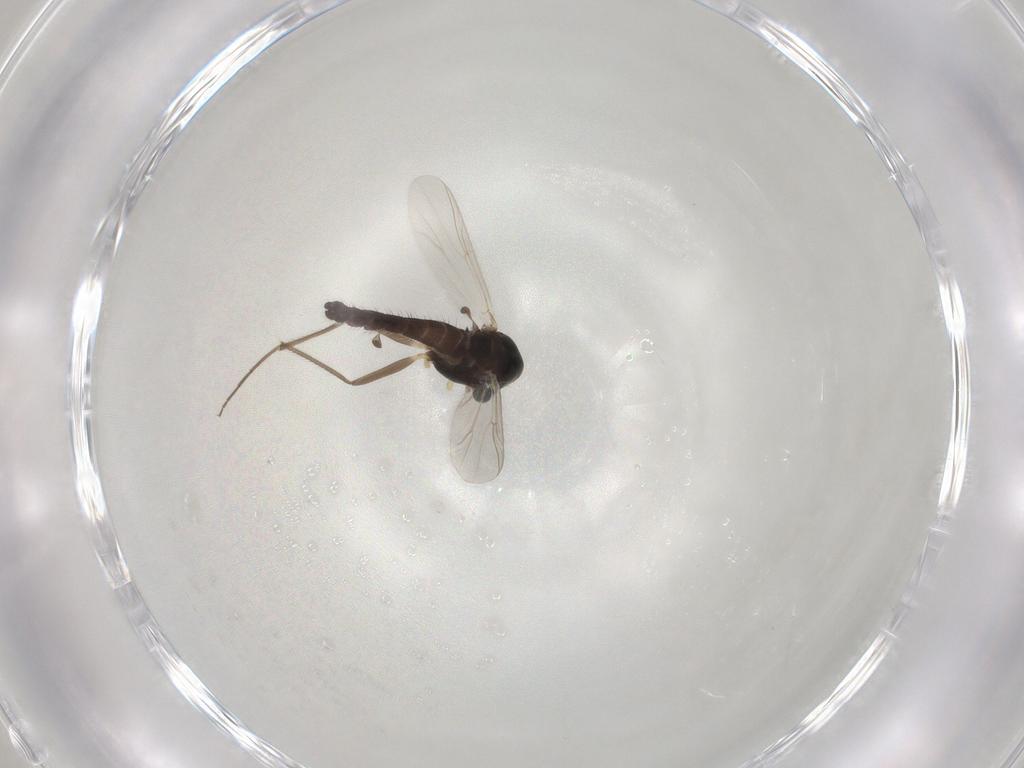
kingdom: Animalia
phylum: Arthropoda
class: Insecta
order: Diptera
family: Chironomidae
